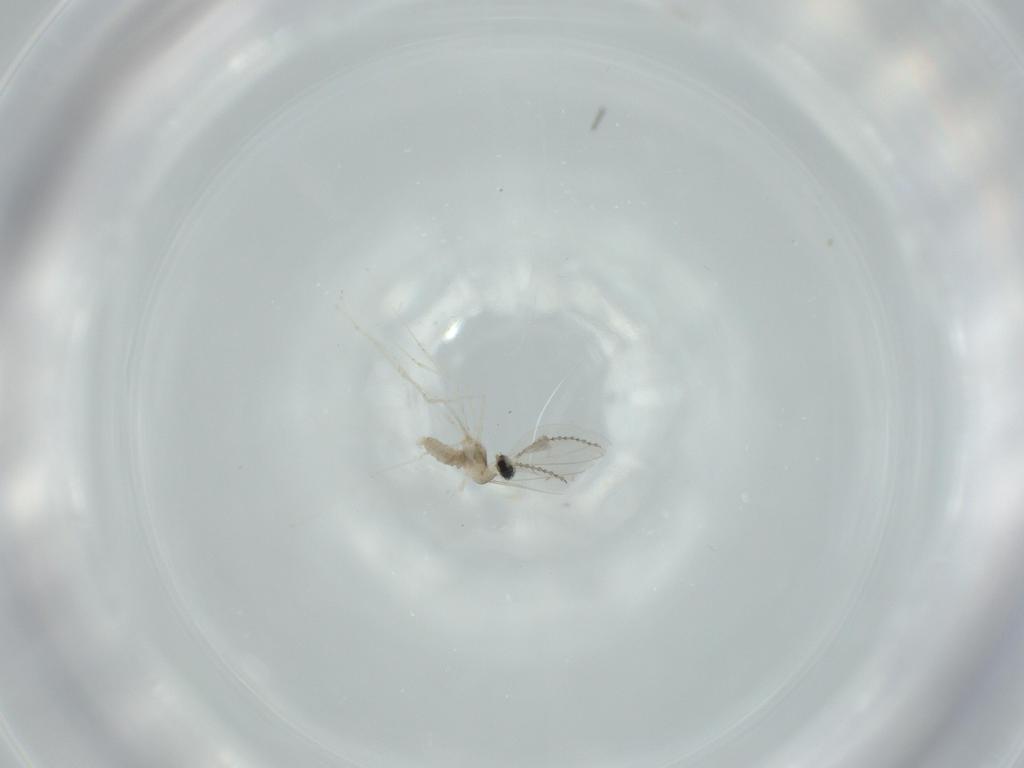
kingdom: Animalia
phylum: Arthropoda
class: Insecta
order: Diptera
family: Cecidomyiidae
